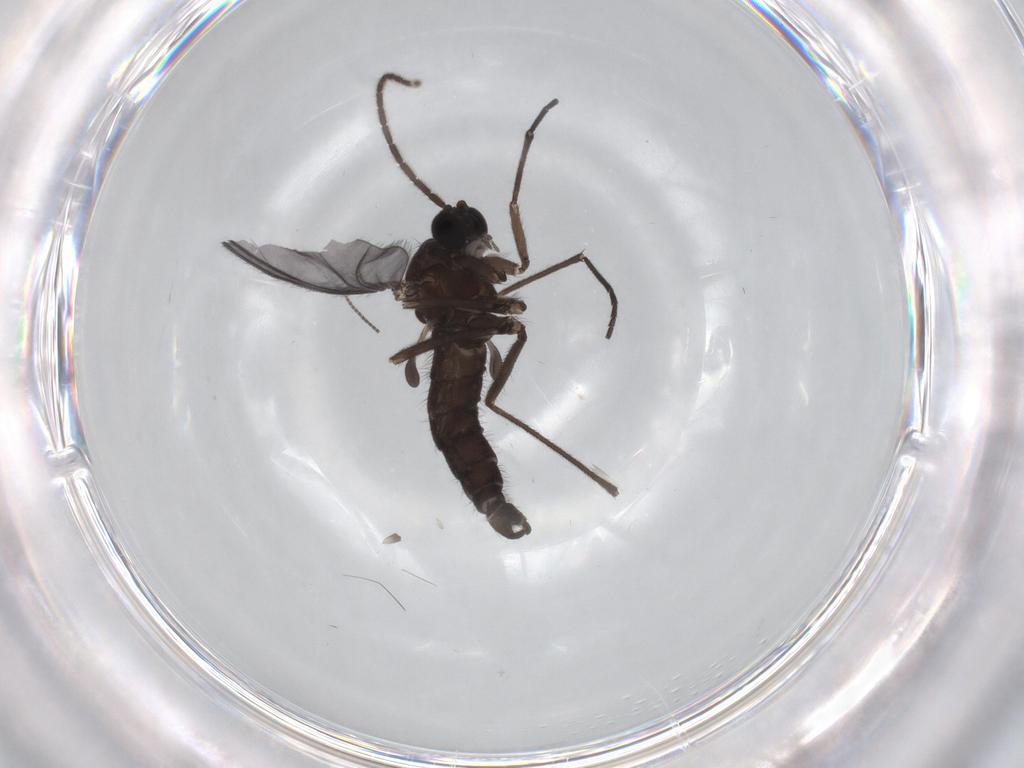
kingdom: Animalia
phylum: Arthropoda
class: Insecta
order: Diptera
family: Sciaridae
